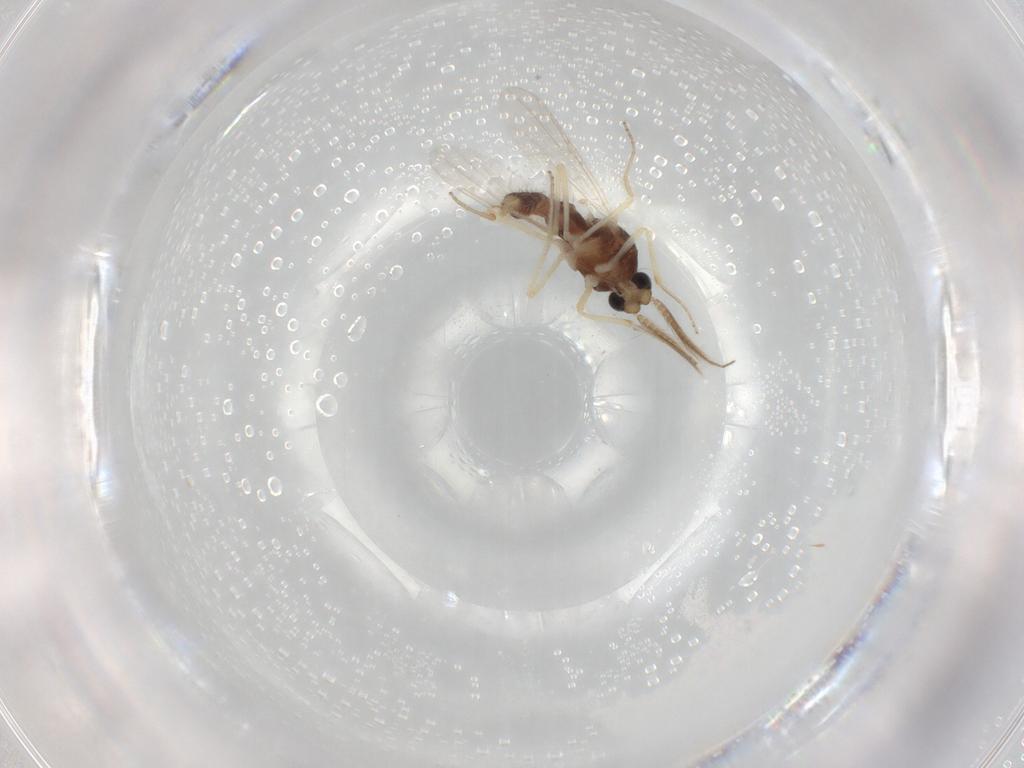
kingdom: Animalia
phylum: Arthropoda
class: Insecta
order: Diptera
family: Ceratopogonidae
